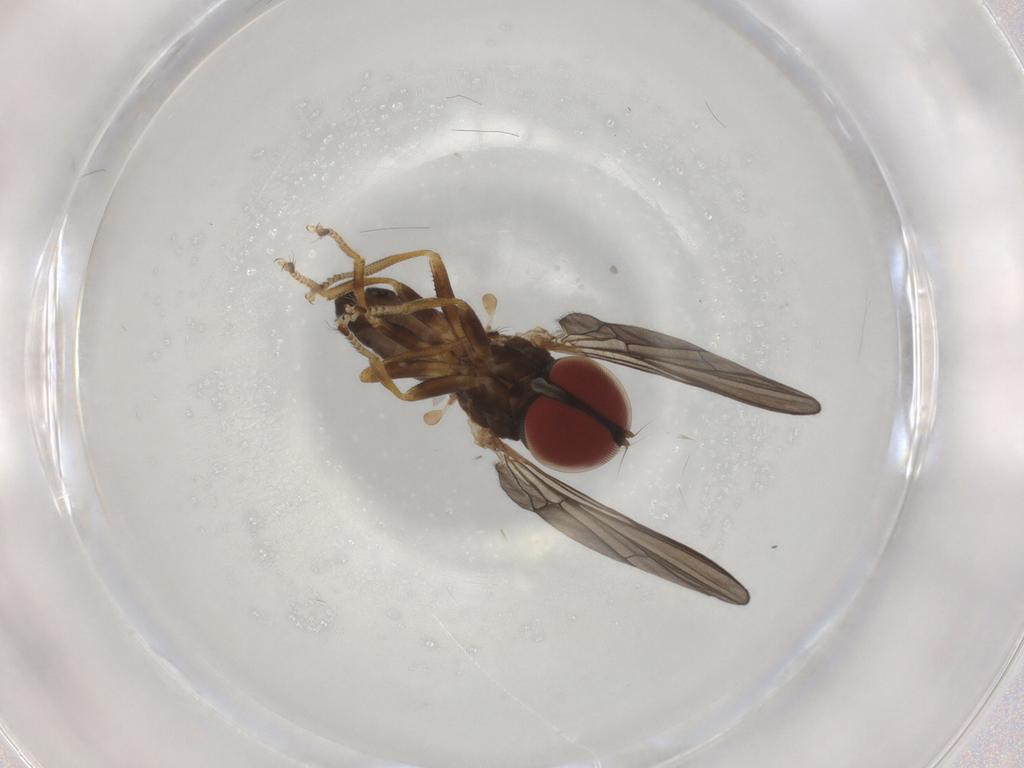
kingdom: Animalia
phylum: Arthropoda
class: Insecta
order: Diptera
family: Pipunculidae
